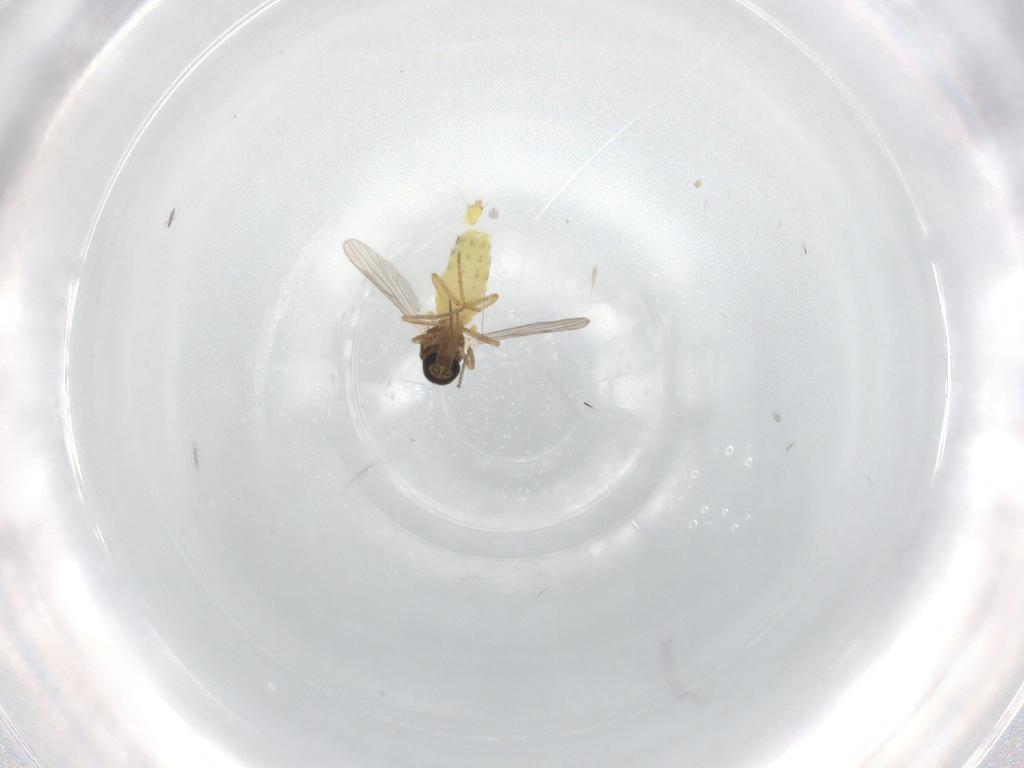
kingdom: Animalia
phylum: Arthropoda
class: Insecta
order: Diptera
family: Ceratopogonidae
